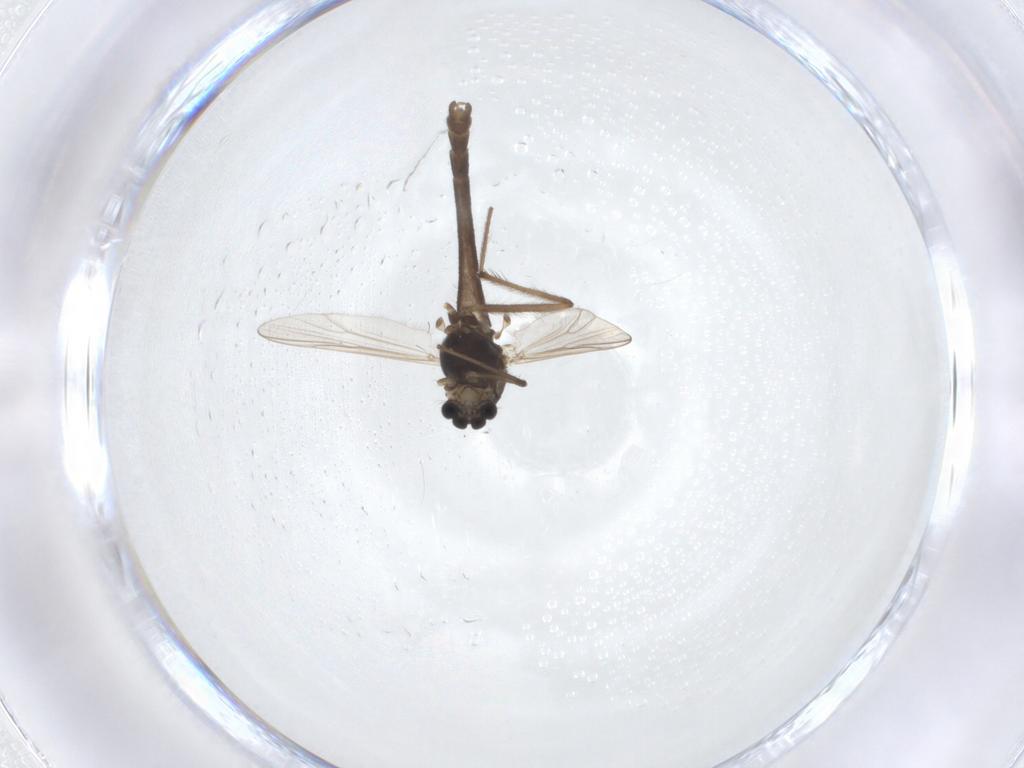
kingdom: Animalia
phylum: Arthropoda
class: Insecta
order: Diptera
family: Chironomidae
